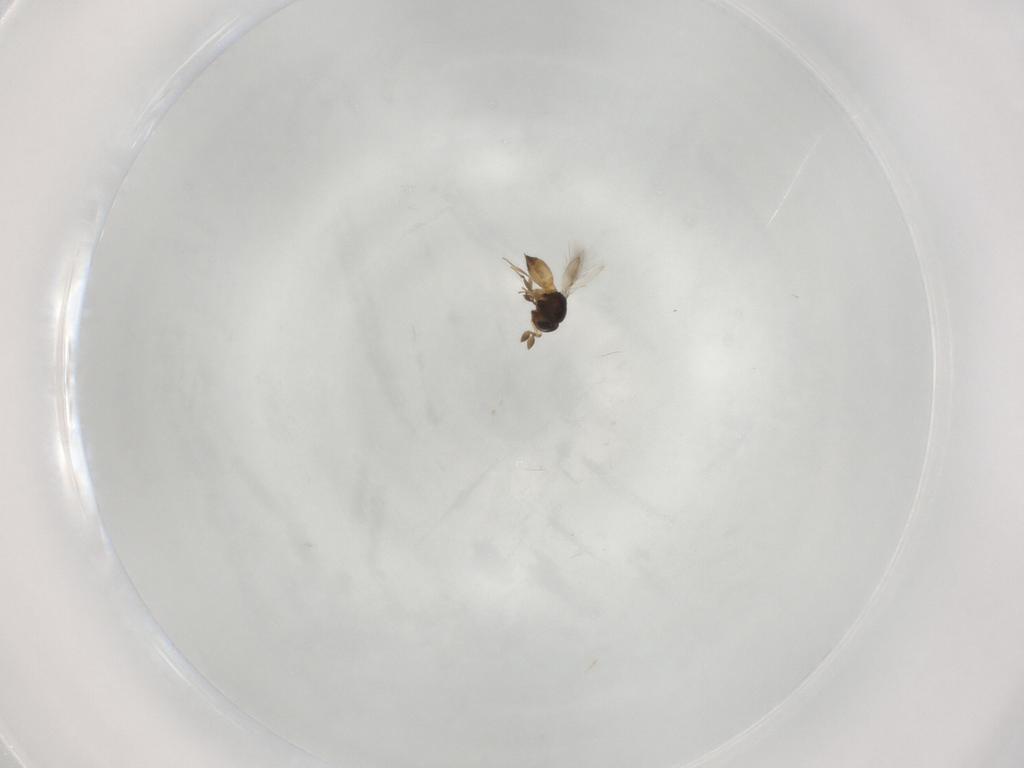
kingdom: Animalia
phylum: Arthropoda
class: Insecta
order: Hymenoptera
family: Scelionidae
